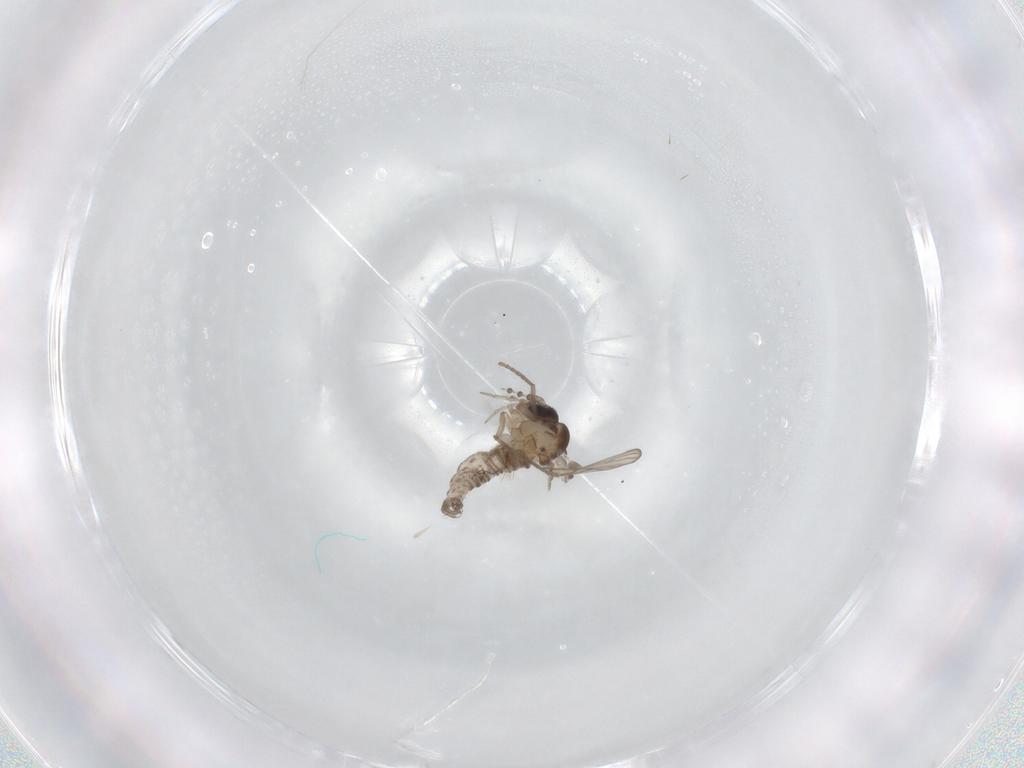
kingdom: Animalia
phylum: Arthropoda
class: Insecta
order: Diptera
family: Psychodidae
